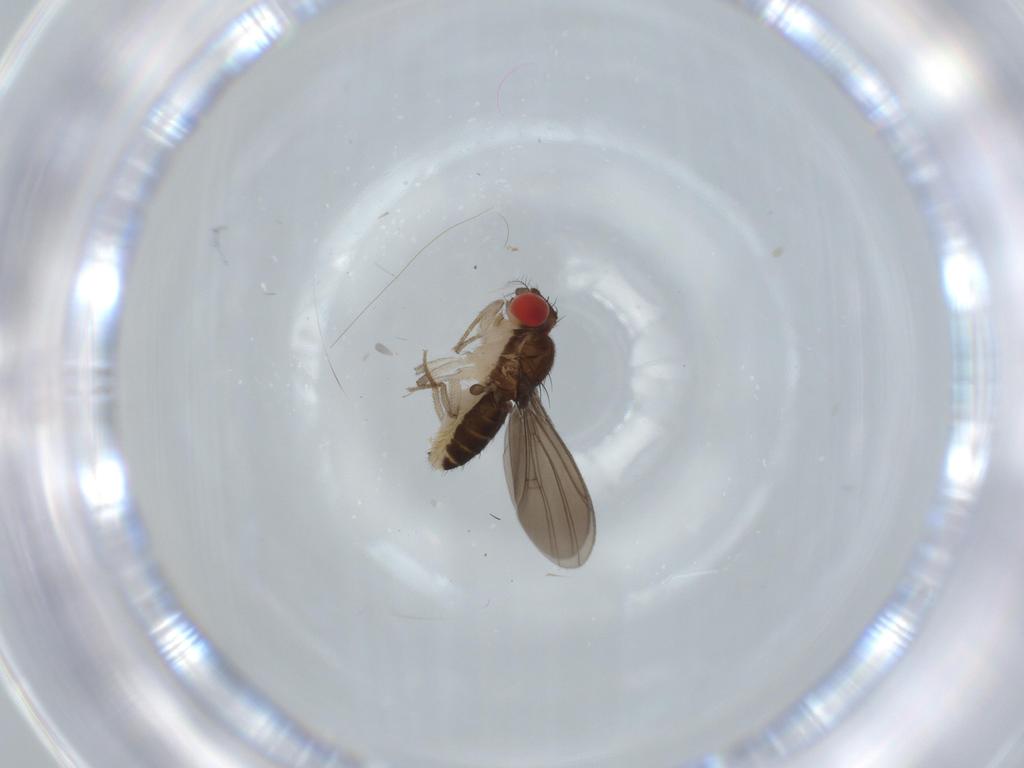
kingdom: Animalia
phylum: Arthropoda
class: Insecta
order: Diptera
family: Drosophilidae
